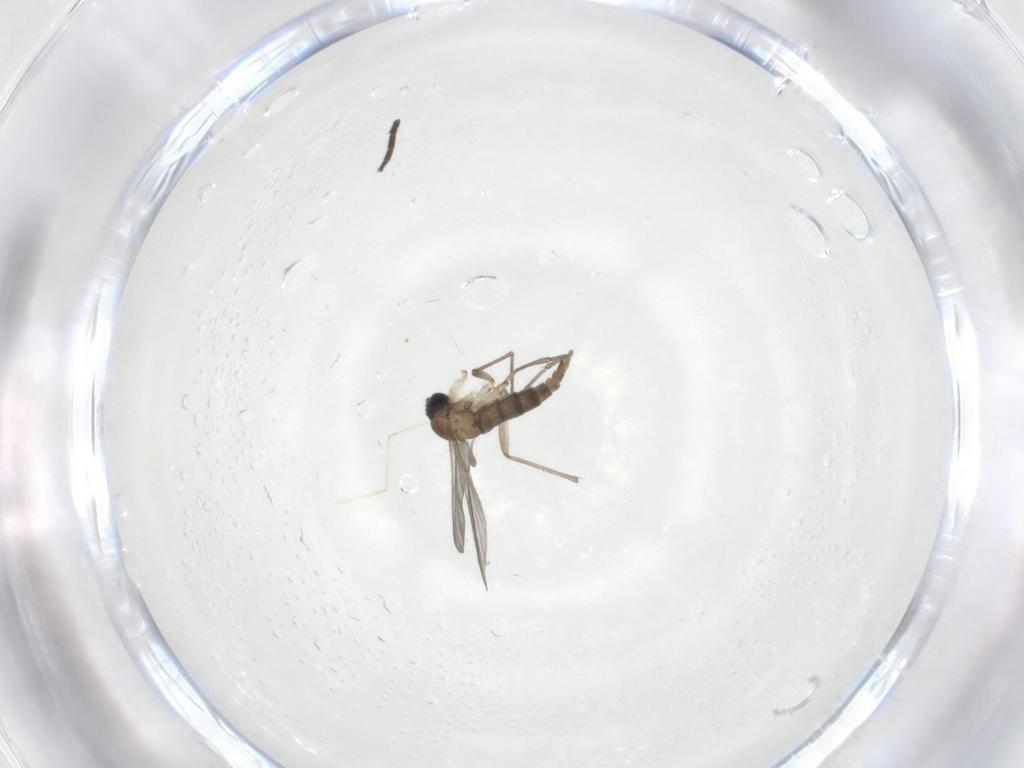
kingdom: Animalia
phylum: Arthropoda
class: Insecta
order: Diptera
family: Sciaridae
